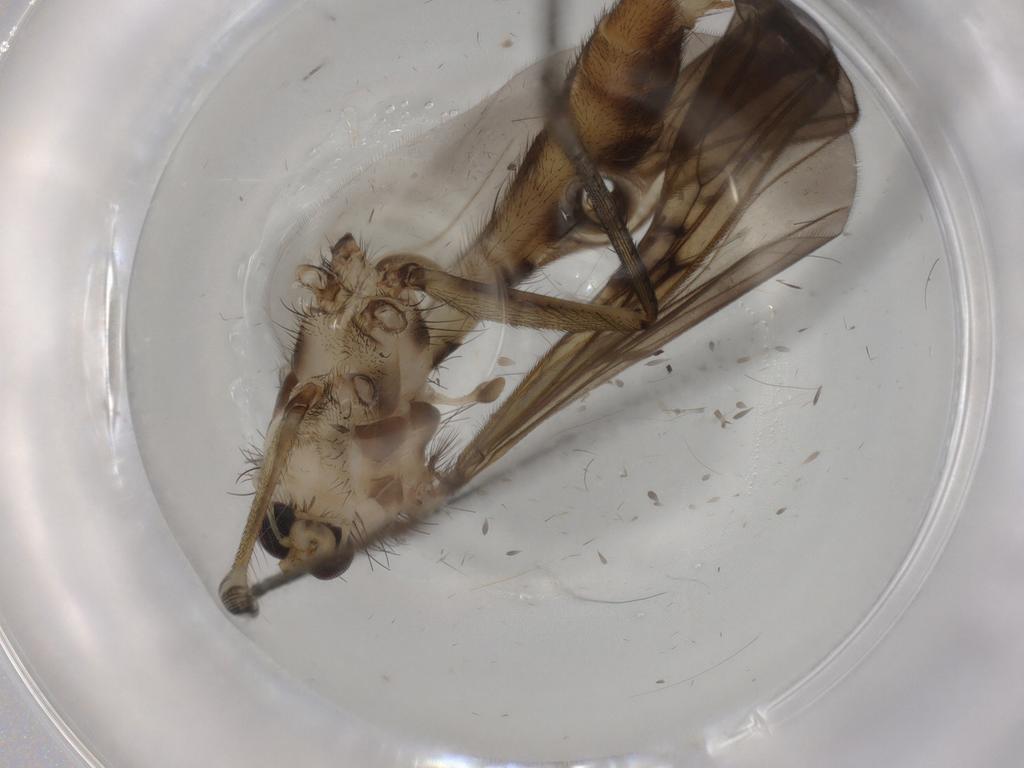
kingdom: Animalia
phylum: Arthropoda
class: Insecta
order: Diptera
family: Mycetophilidae
